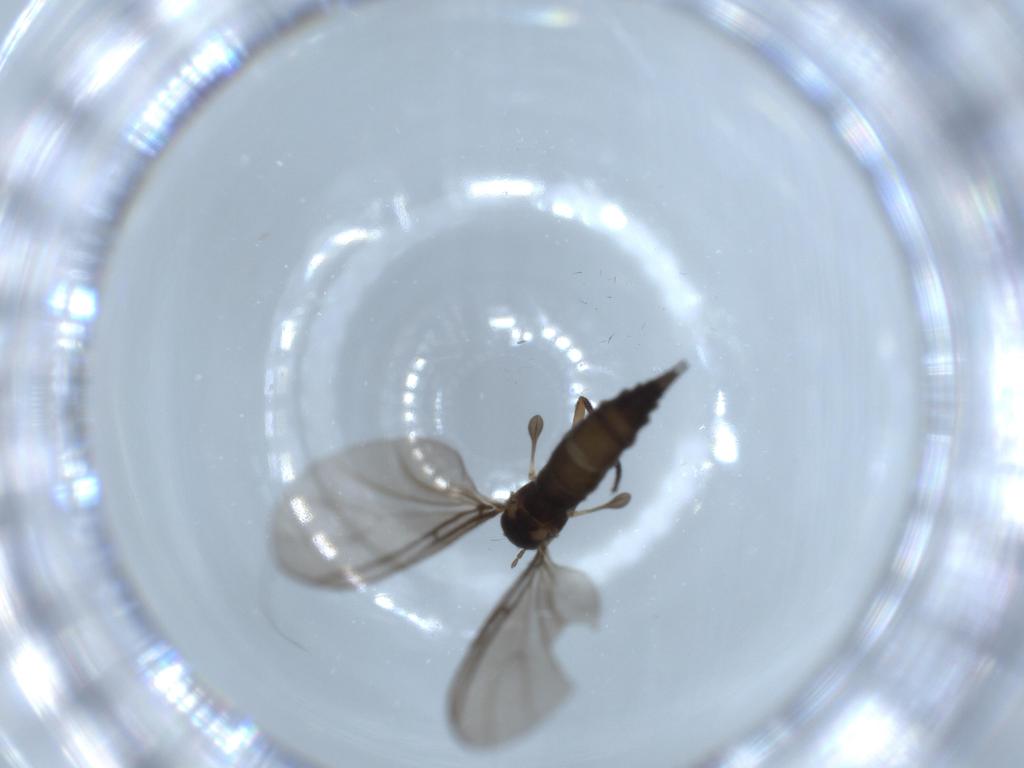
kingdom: Animalia
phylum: Arthropoda
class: Insecta
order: Diptera
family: Sciaridae
